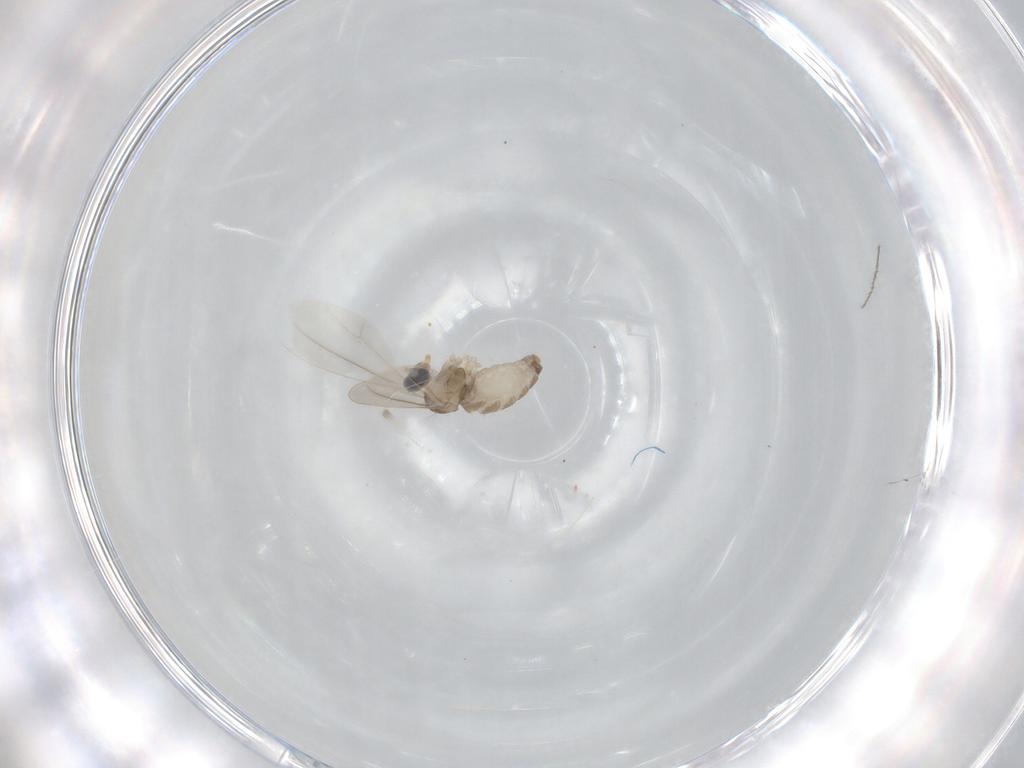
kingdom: Animalia
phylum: Arthropoda
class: Insecta
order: Diptera
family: Cecidomyiidae
